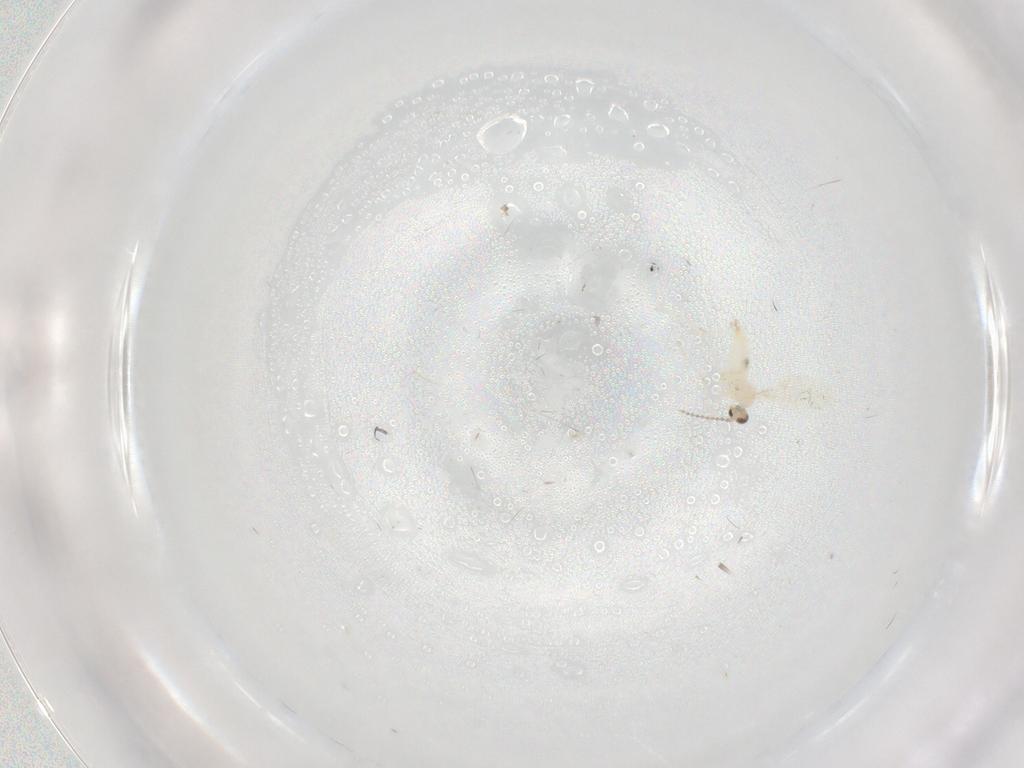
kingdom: Animalia
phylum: Arthropoda
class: Insecta
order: Diptera
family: Cecidomyiidae
